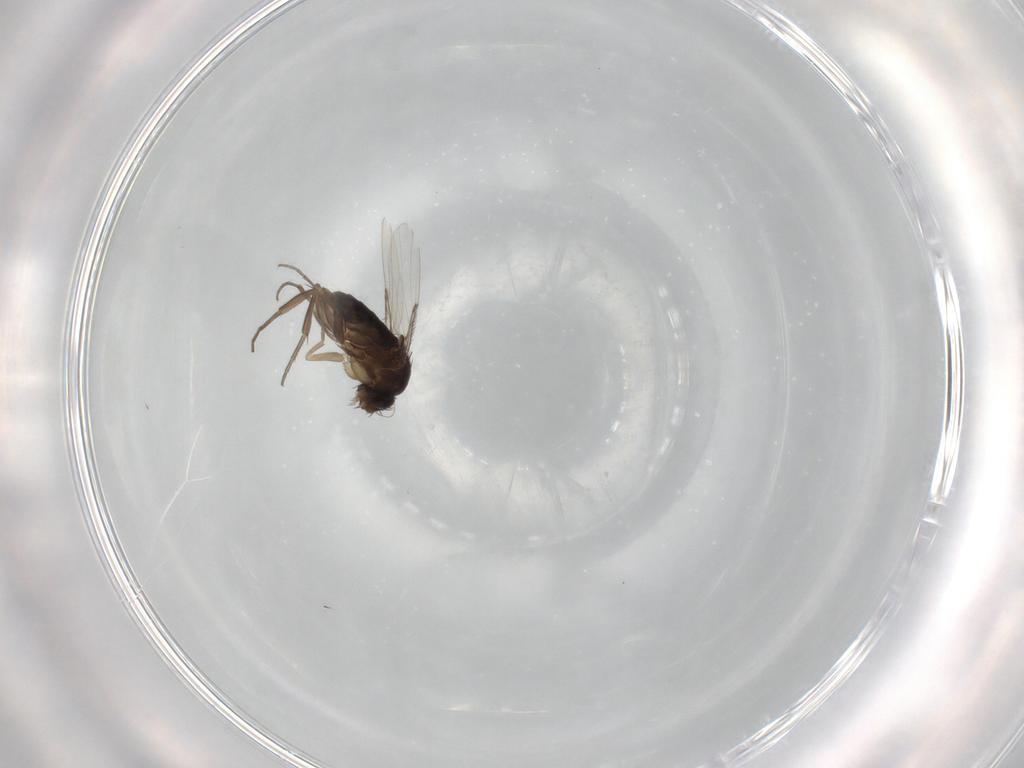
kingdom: Animalia
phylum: Arthropoda
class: Insecta
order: Diptera
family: Phoridae
